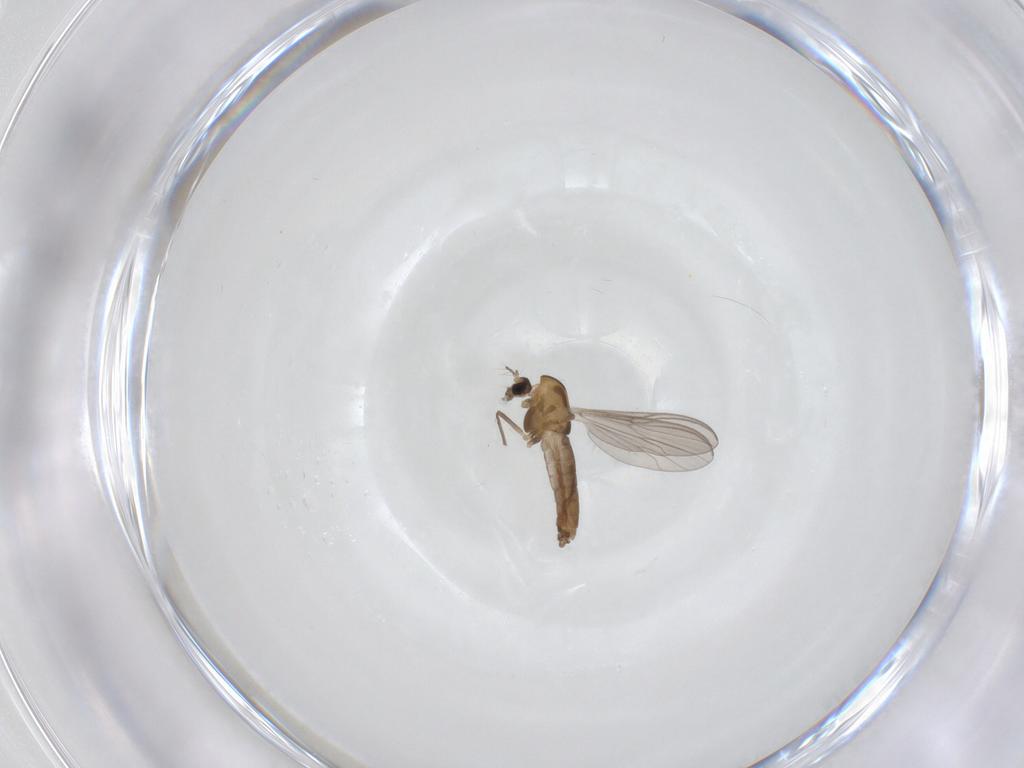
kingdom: Animalia
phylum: Arthropoda
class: Insecta
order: Diptera
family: Chironomidae
